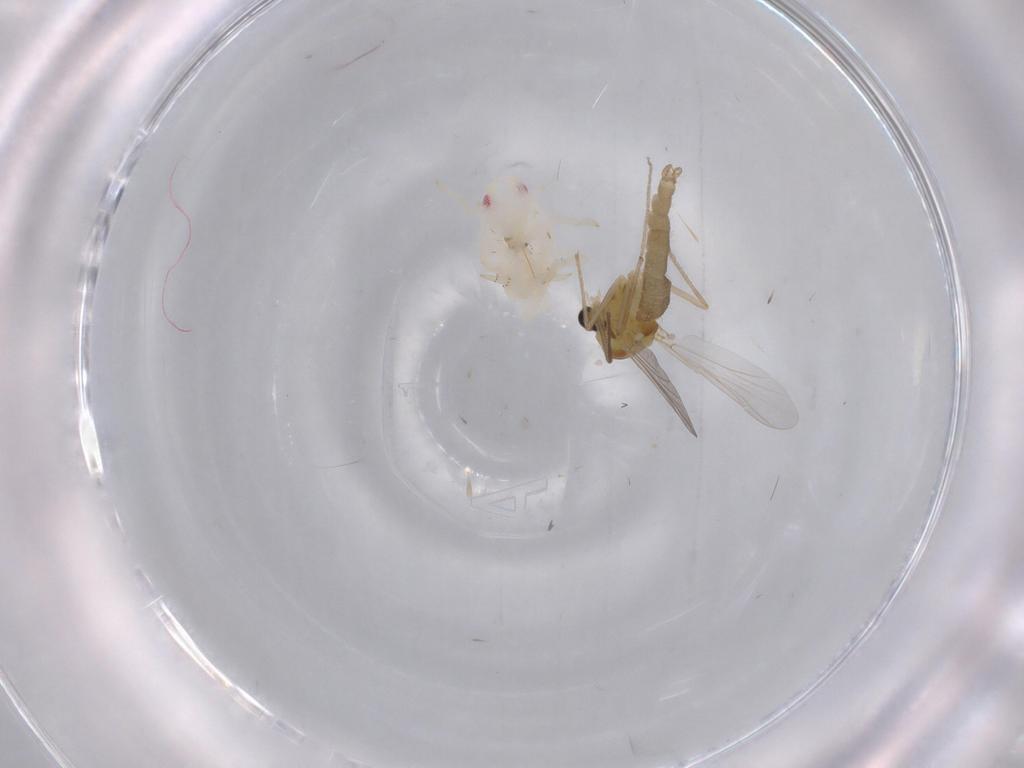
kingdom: Animalia
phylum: Arthropoda
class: Insecta
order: Diptera
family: Chironomidae
